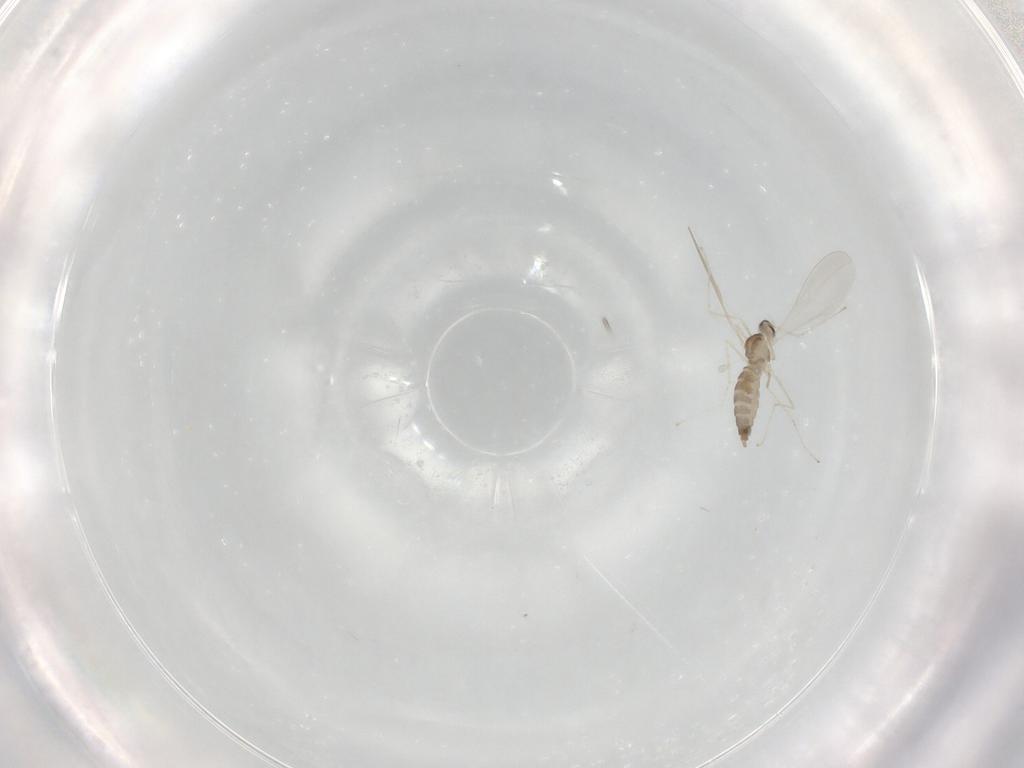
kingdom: Animalia
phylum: Arthropoda
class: Insecta
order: Diptera
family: Cecidomyiidae
